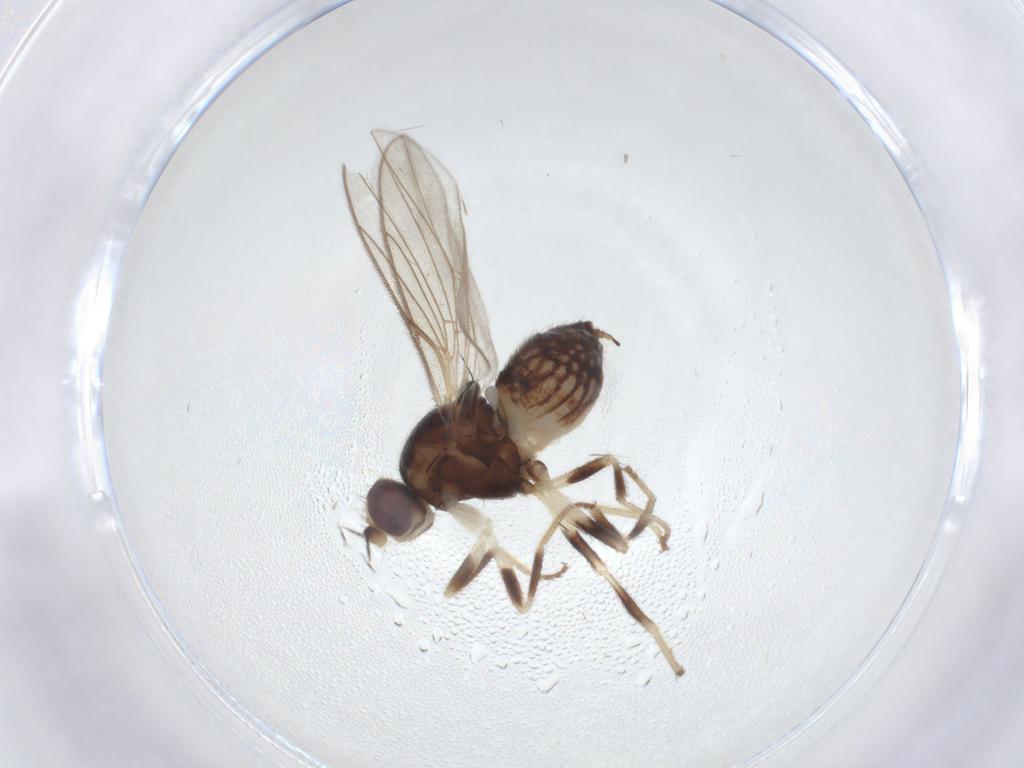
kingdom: Animalia
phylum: Arthropoda
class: Insecta
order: Diptera
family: Chloropidae
